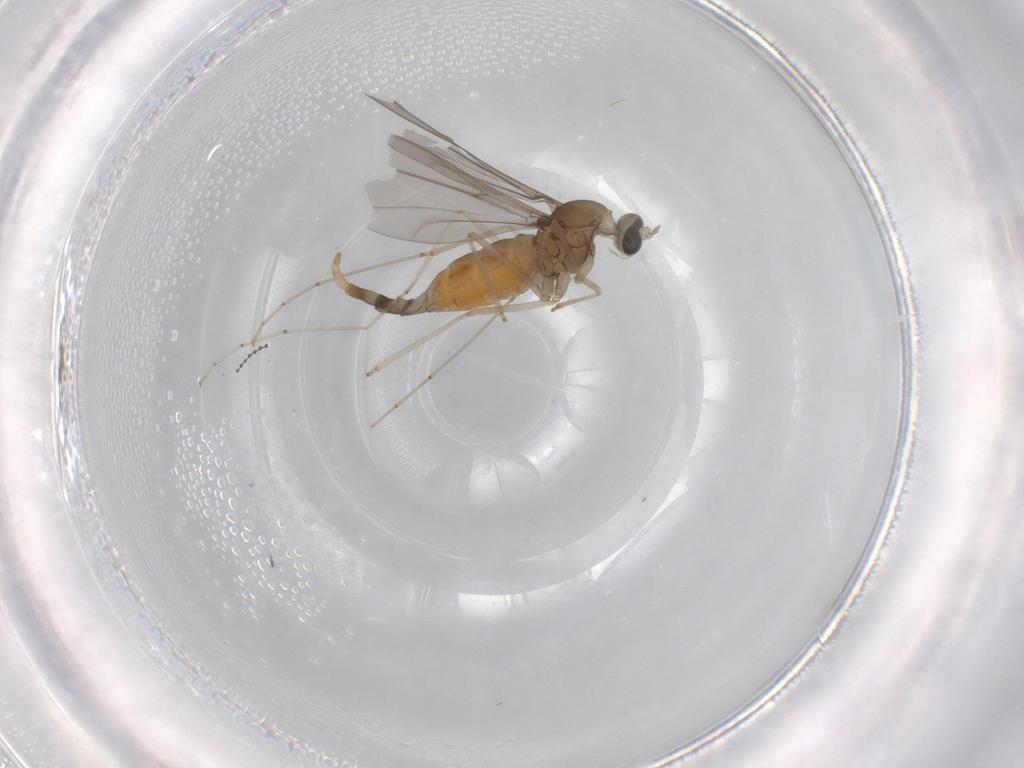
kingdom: Animalia
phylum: Arthropoda
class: Insecta
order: Diptera
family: Cecidomyiidae
